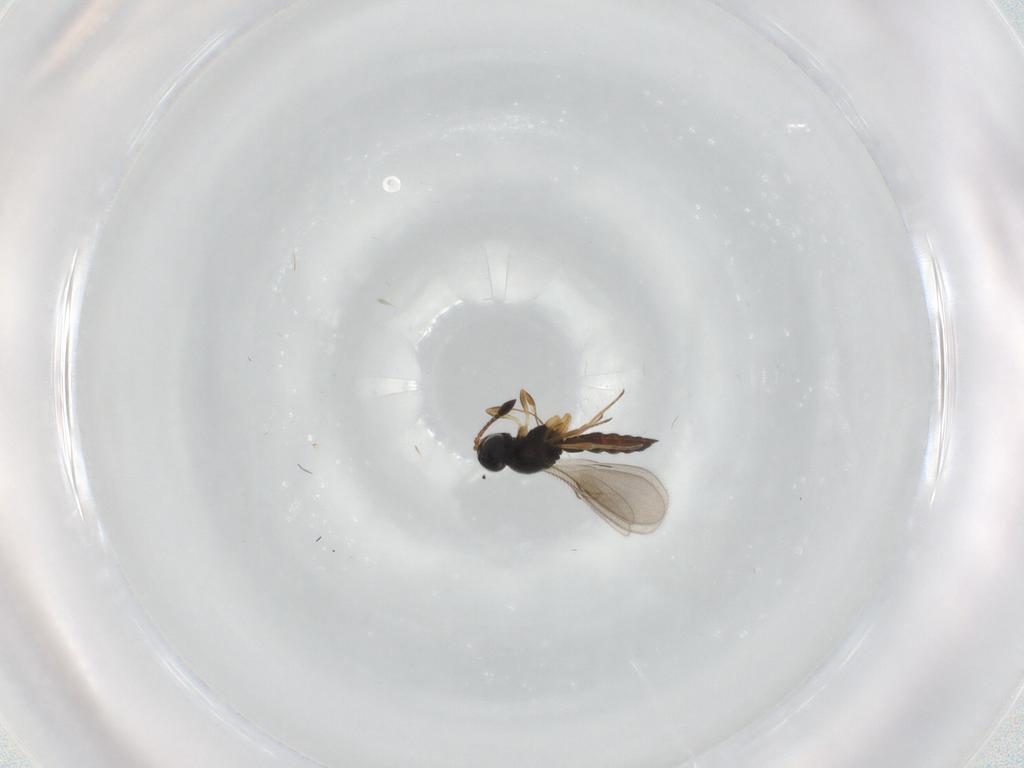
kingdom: Animalia
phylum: Arthropoda
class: Insecta
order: Hymenoptera
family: Scelionidae
